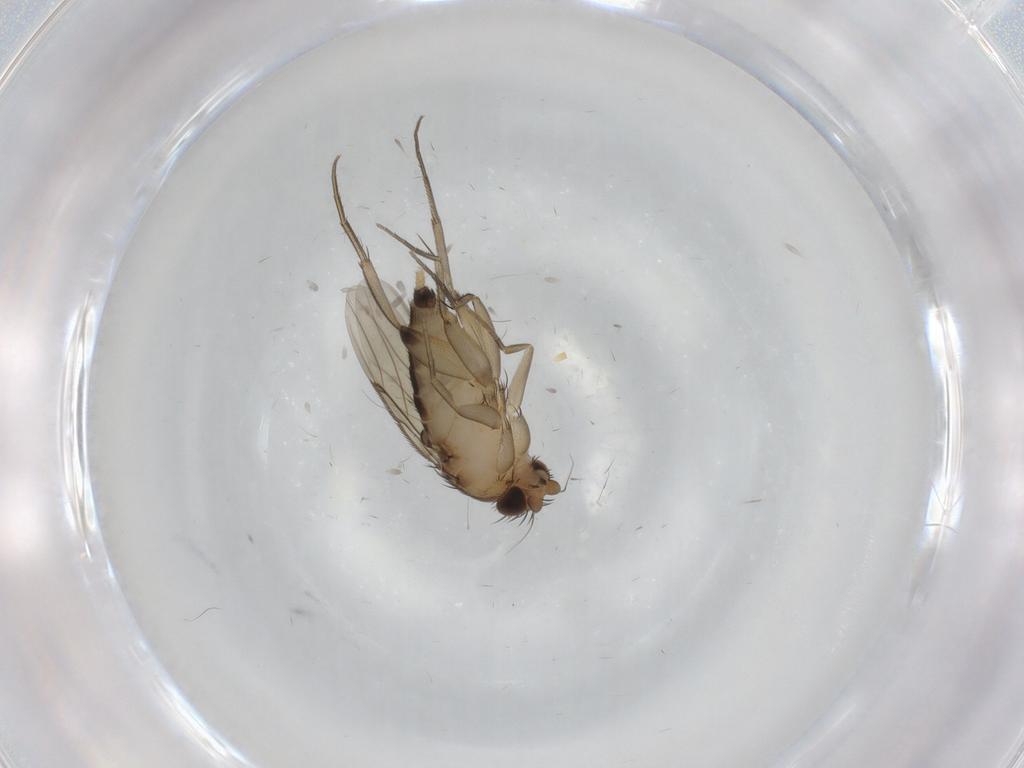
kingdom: Animalia
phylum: Arthropoda
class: Insecta
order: Diptera
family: Phoridae
